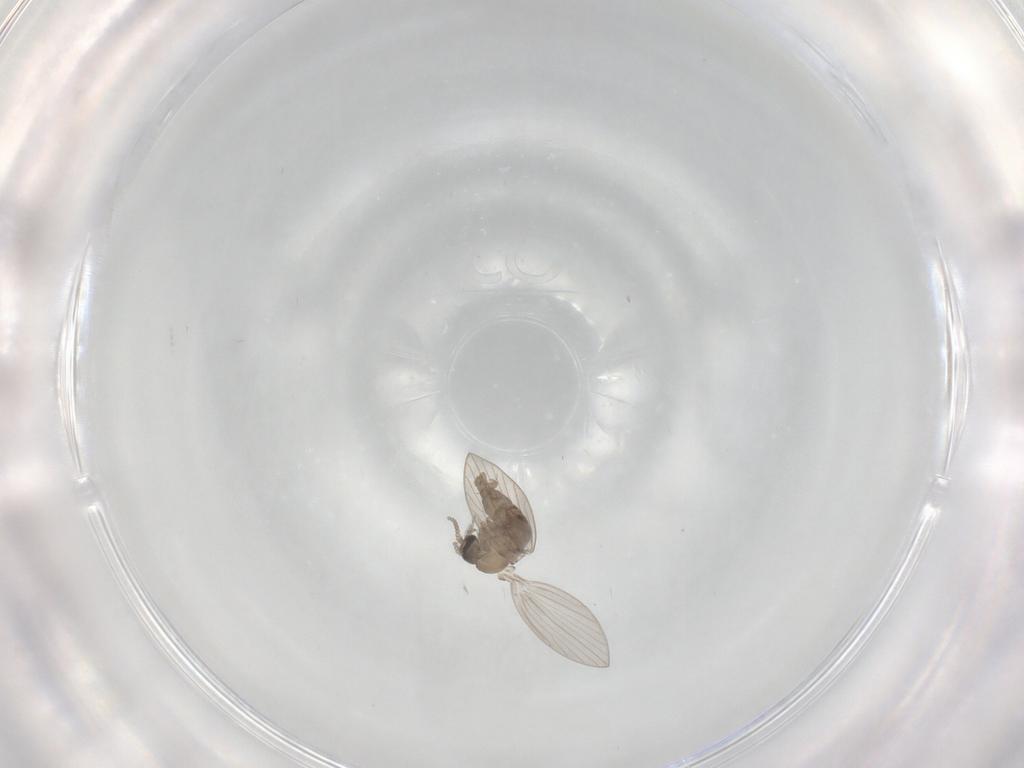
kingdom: Animalia
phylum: Arthropoda
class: Insecta
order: Diptera
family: Psychodidae
